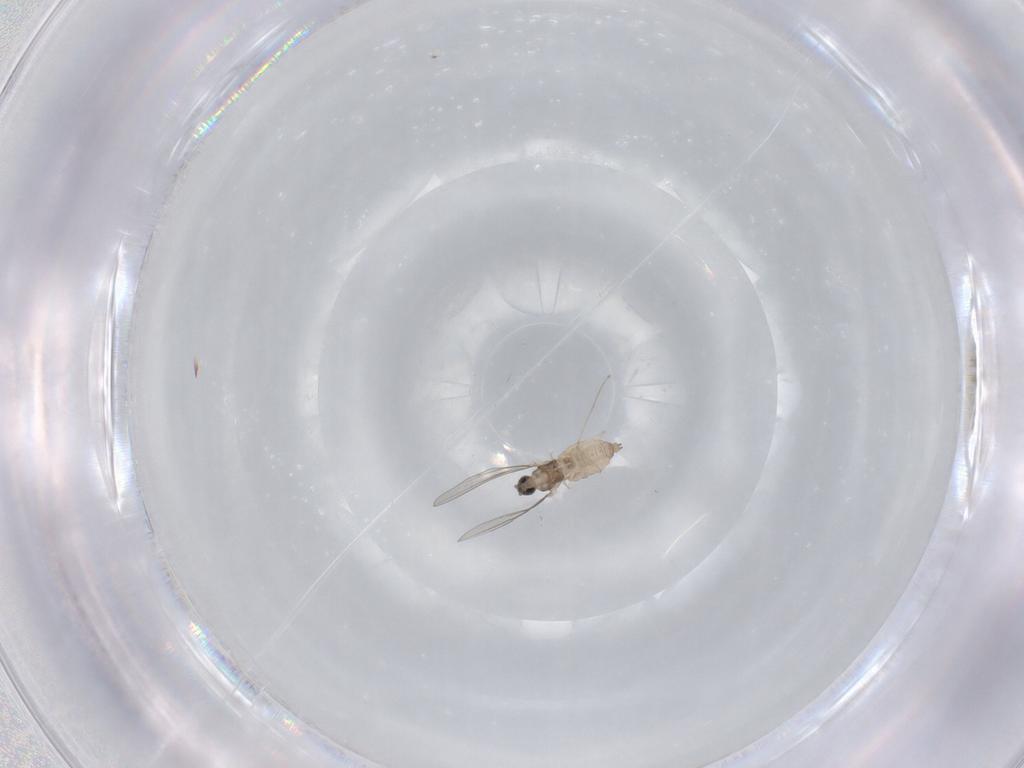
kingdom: Animalia
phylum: Arthropoda
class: Insecta
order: Diptera
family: Cecidomyiidae
